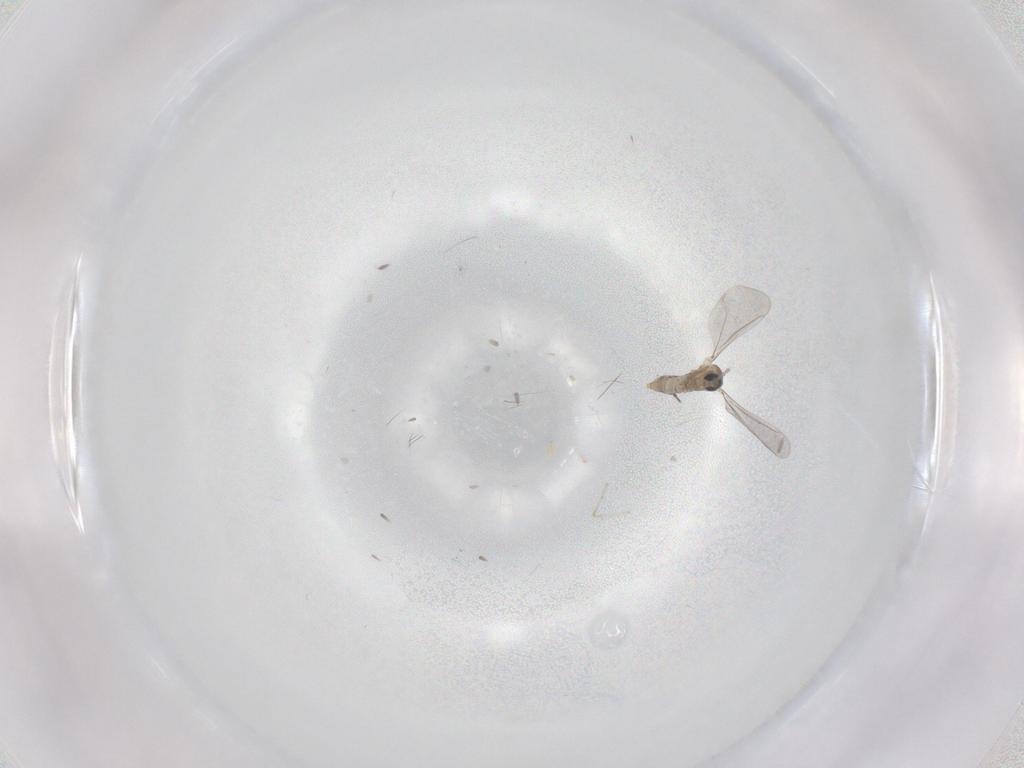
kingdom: Animalia
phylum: Arthropoda
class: Insecta
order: Diptera
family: Cecidomyiidae
